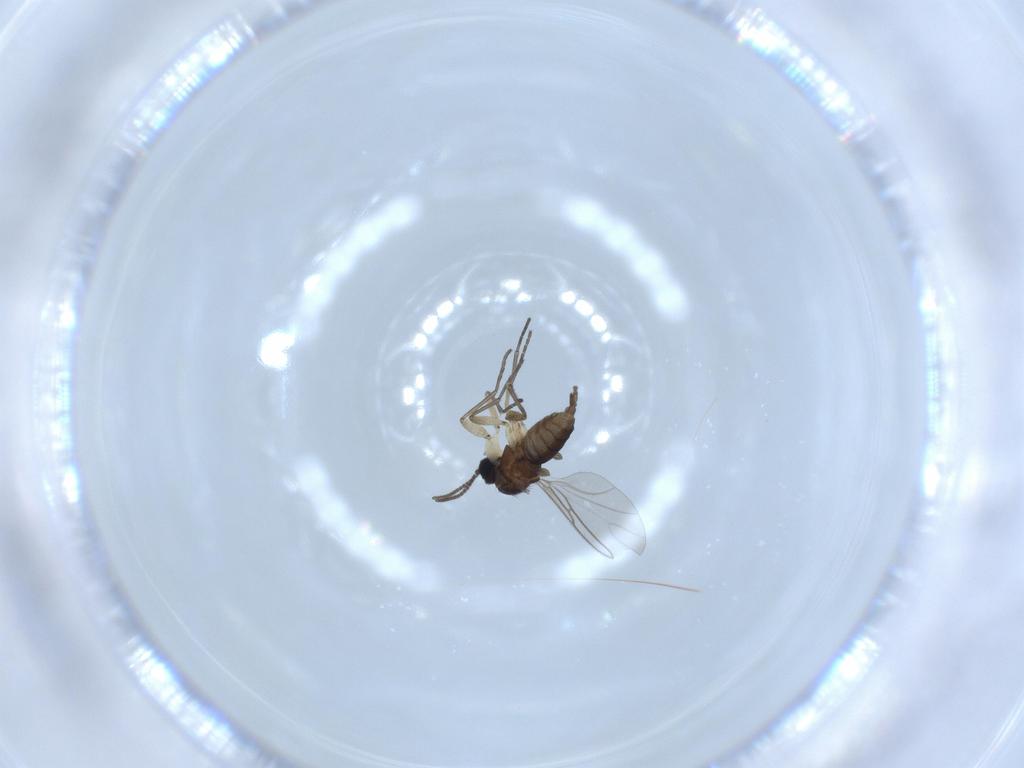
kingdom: Animalia
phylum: Arthropoda
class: Insecta
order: Diptera
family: Sciaridae
